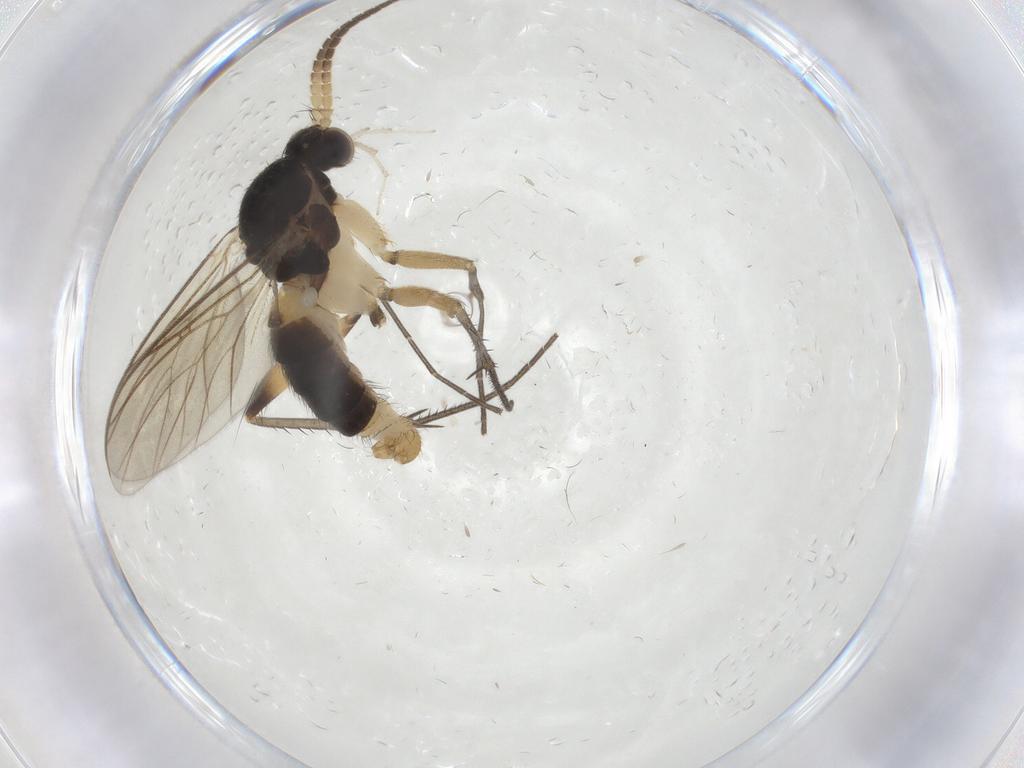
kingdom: Animalia
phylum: Arthropoda
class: Insecta
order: Diptera
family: Mycetophilidae
